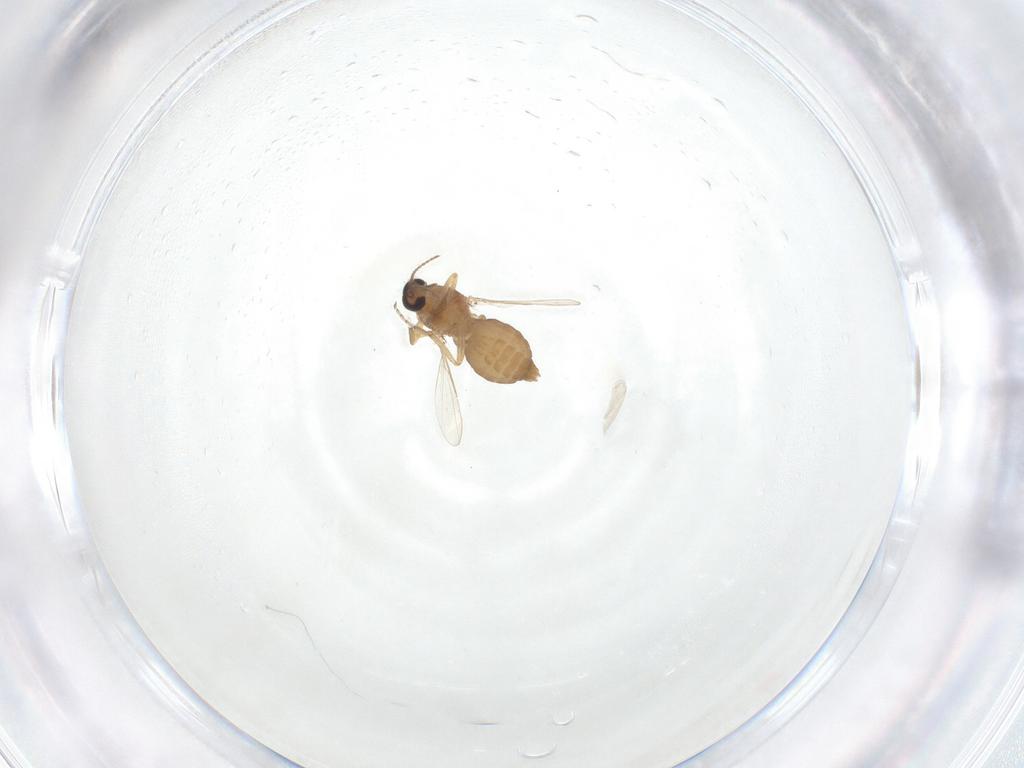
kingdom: Animalia
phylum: Arthropoda
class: Insecta
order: Diptera
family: Ceratopogonidae
